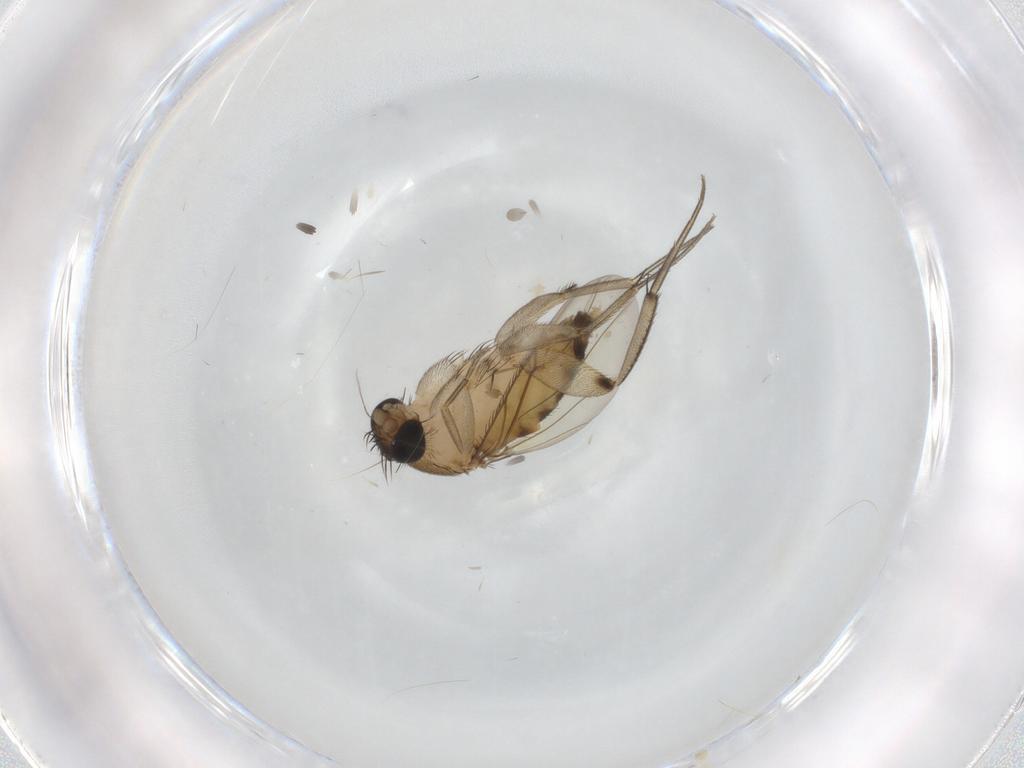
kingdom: Animalia
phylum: Arthropoda
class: Insecta
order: Diptera
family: Phoridae
